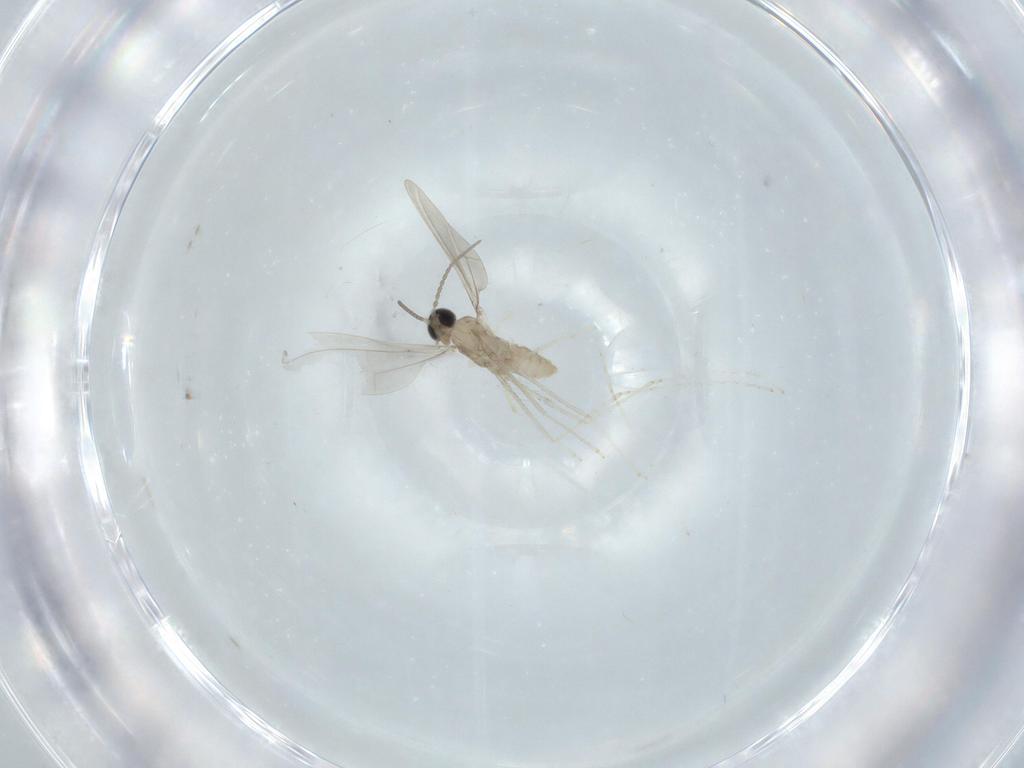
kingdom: Animalia
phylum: Arthropoda
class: Insecta
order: Diptera
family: Cecidomyiidae
